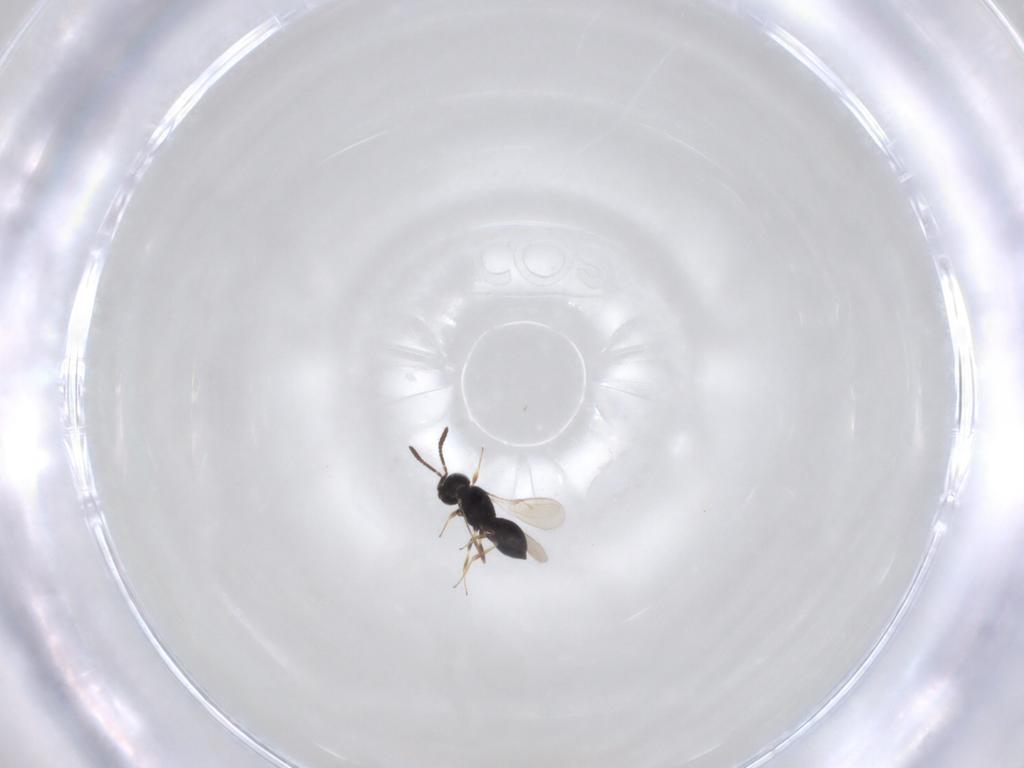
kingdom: Animalia
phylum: Arthropoda
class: Insecta
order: Hymenoptera
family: Scelionidae
